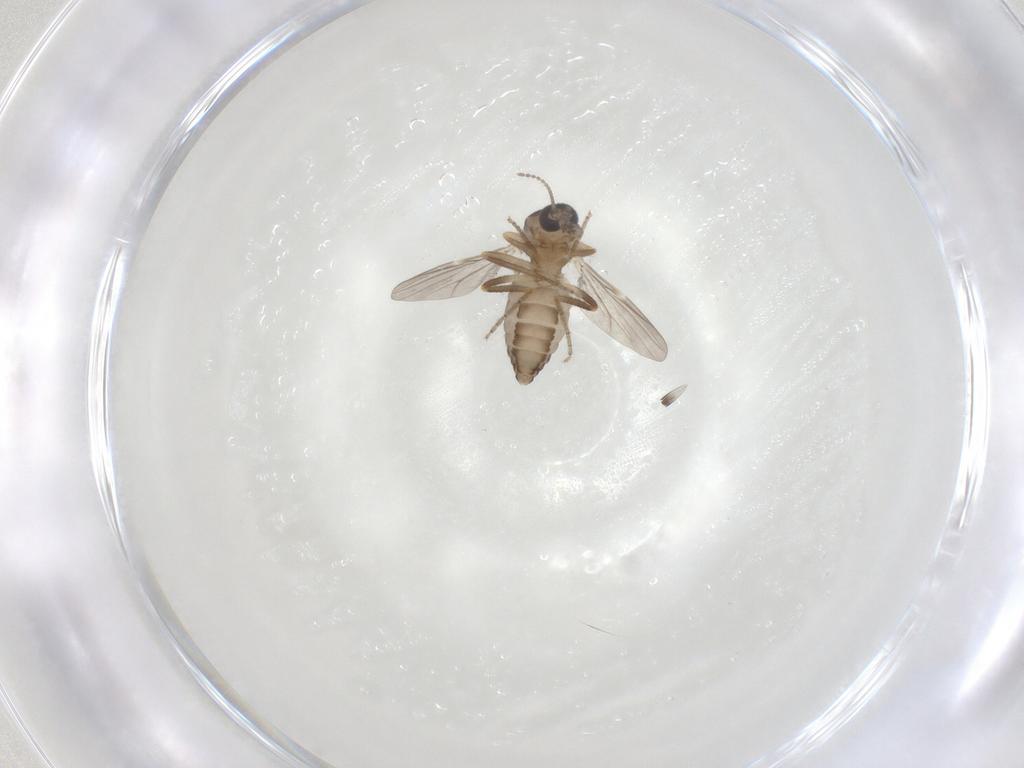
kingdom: Animalia
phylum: Arthropoda
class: Insecta
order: Diptera
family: Ceratopogonidae
